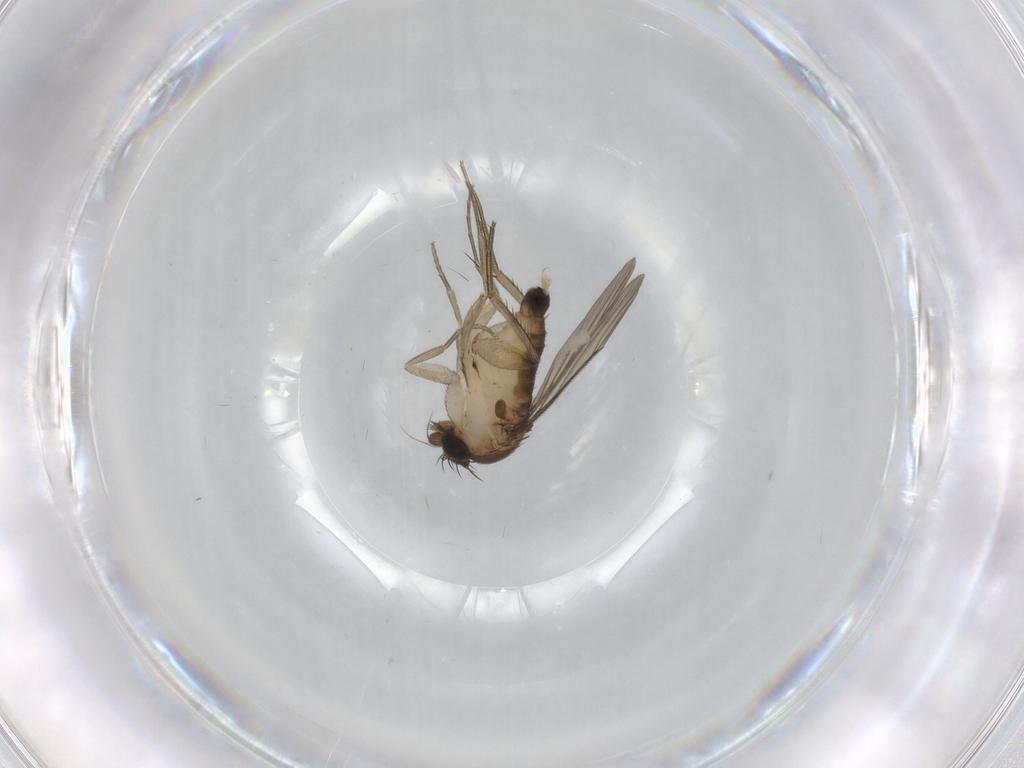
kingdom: Animalia
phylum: Arthropoda
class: Insecta
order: Diptera
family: Phoridae
